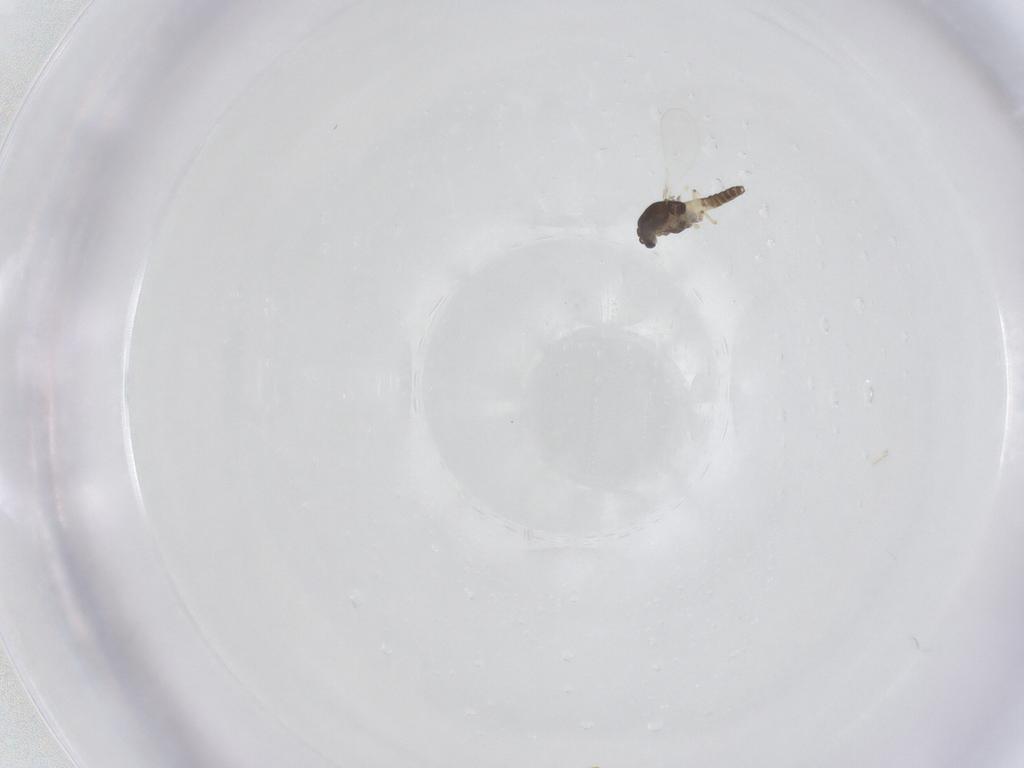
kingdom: Animalia
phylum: Arthropoda
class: Insecta
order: Diptera
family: Chironomidae
